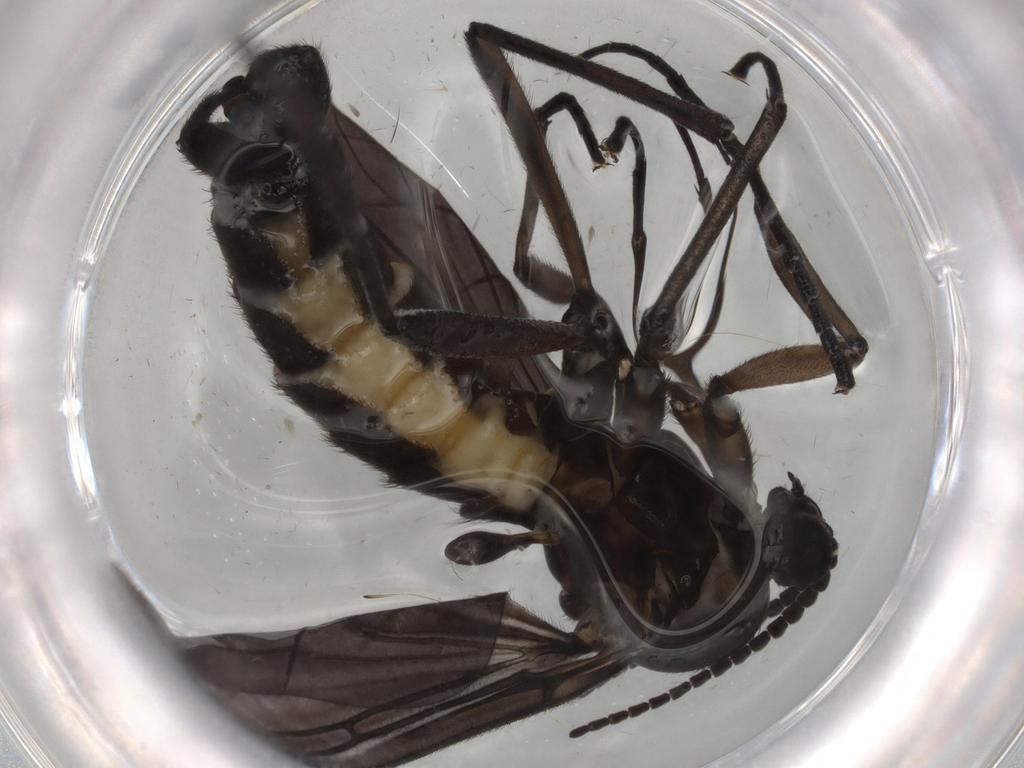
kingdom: Animalia
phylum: Arthropoda
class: Insecta
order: Diptera
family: Sciaridae
